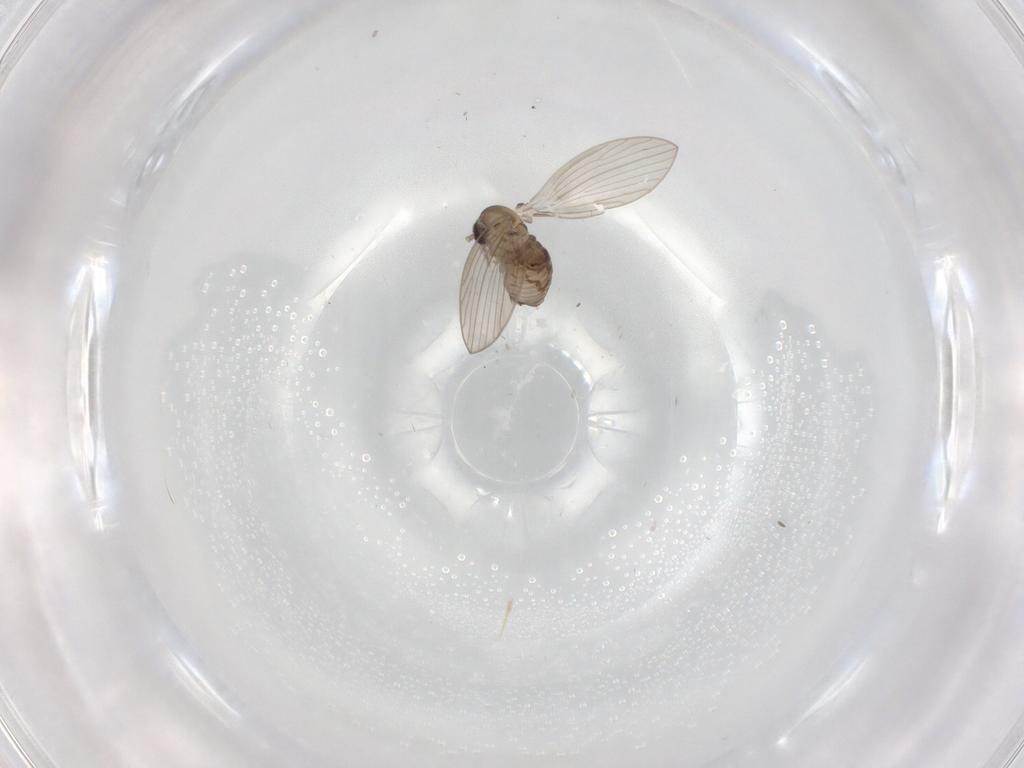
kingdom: Animalia
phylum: Arthropoda
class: Insecta
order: Diptera
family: Psychodidae
